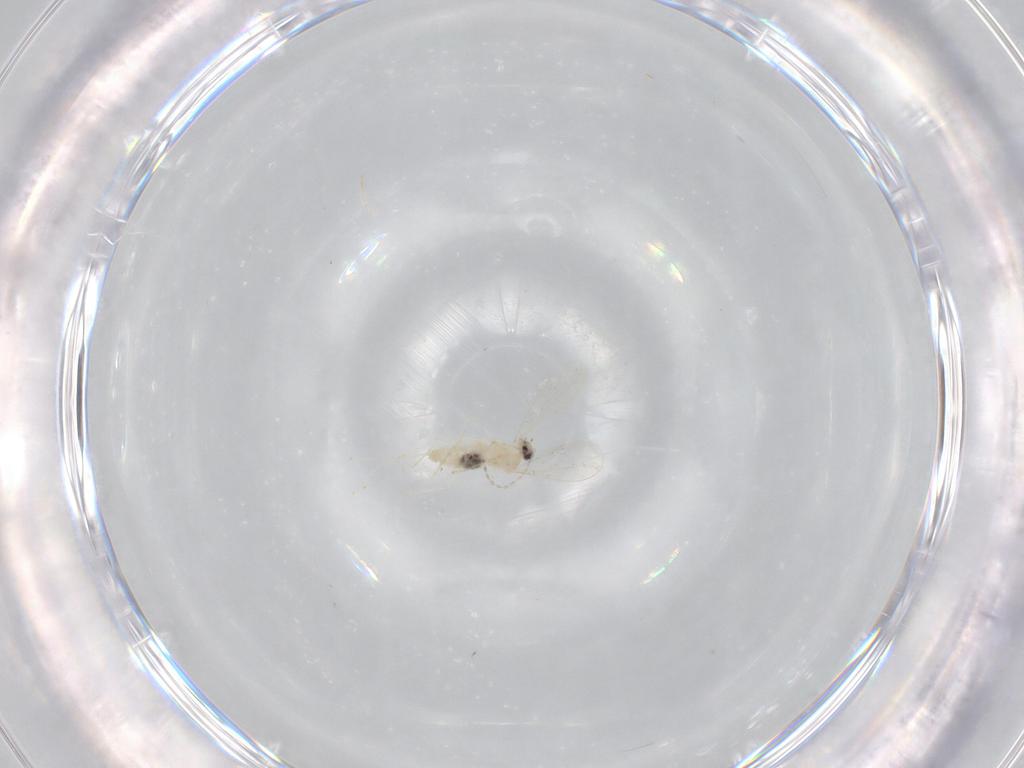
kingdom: Animalia
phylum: Arthropoda
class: Insecta
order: Diptera
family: Cecidomyiidae
